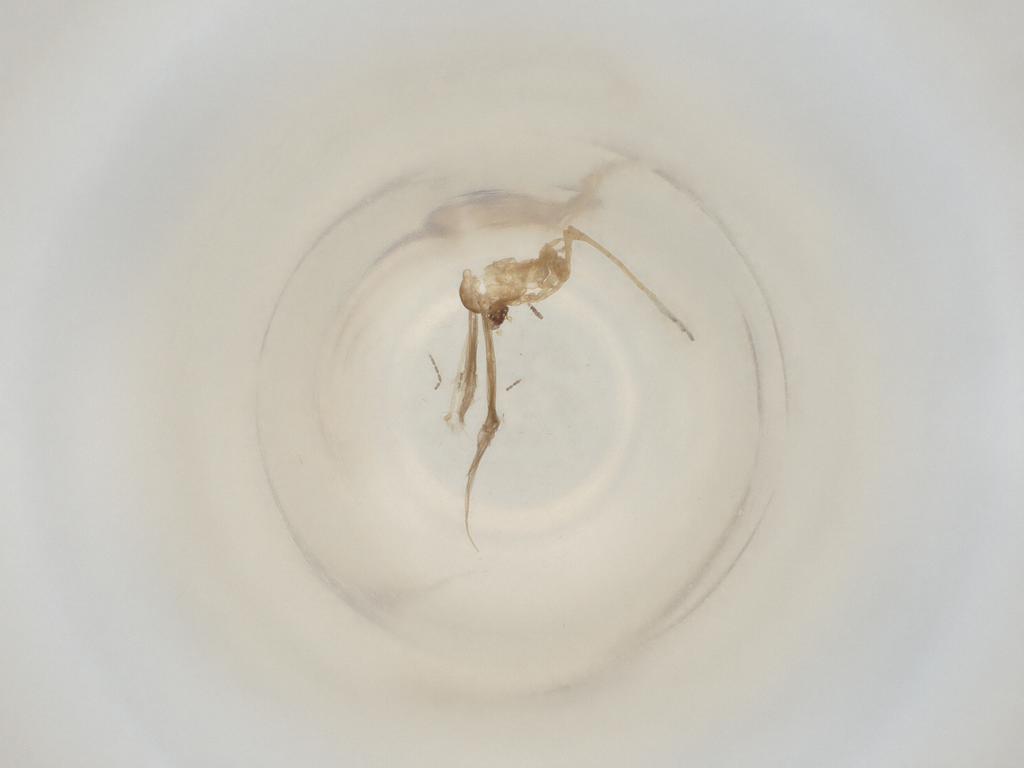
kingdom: Animalia
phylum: Arthropoda
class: Insecta
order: Diptera
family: Cecidomyiidae
